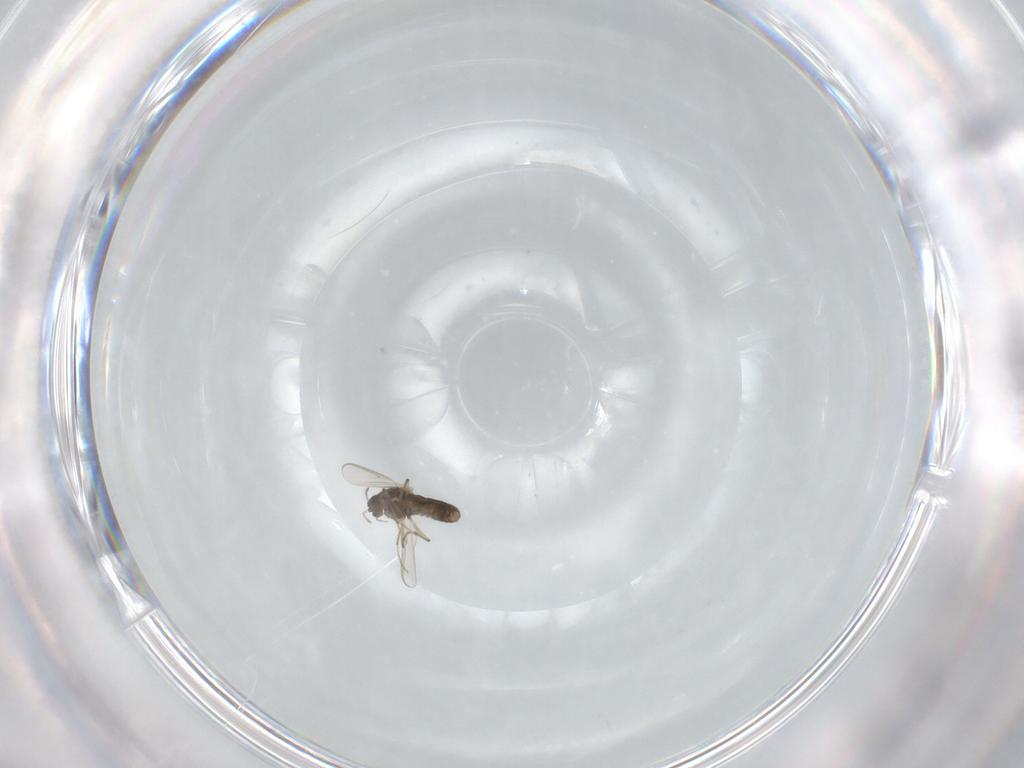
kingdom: Animalia
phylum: Arthropoda
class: Insecta
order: Diptera
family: Chironomidae
